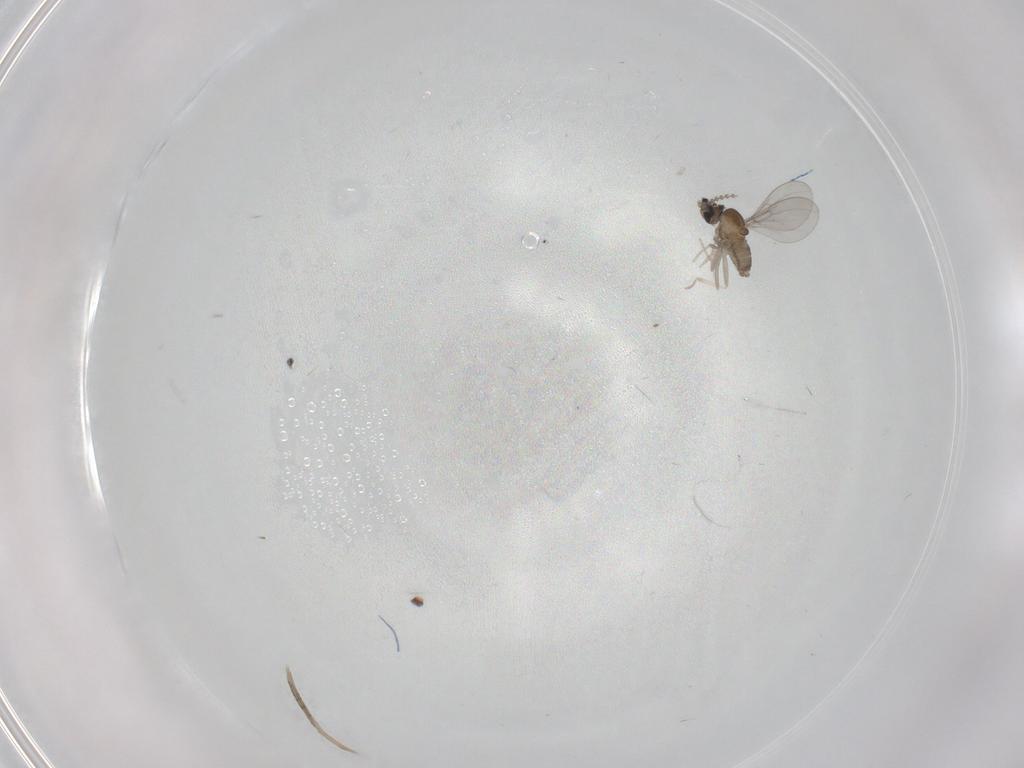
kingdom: Animalia
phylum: Arthropoda
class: Insecta
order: Diptera
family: Cecidomyiidae
